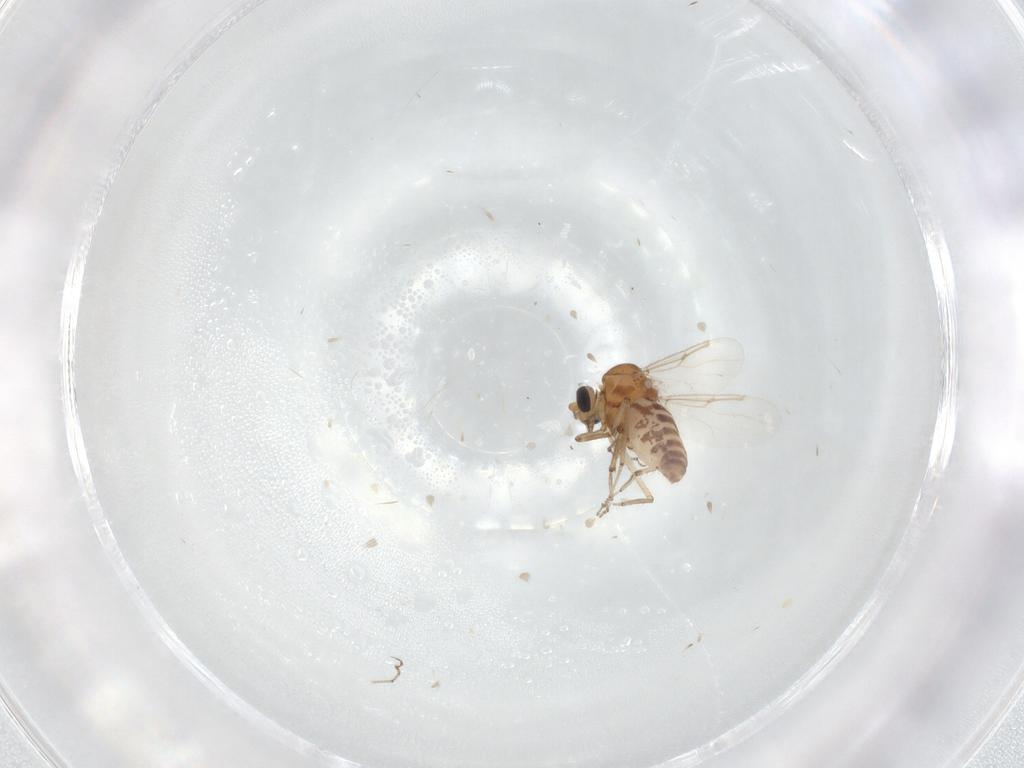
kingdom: Animalia
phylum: Arthropoda
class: Insecta
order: Diptera
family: Ceratopogonidae
